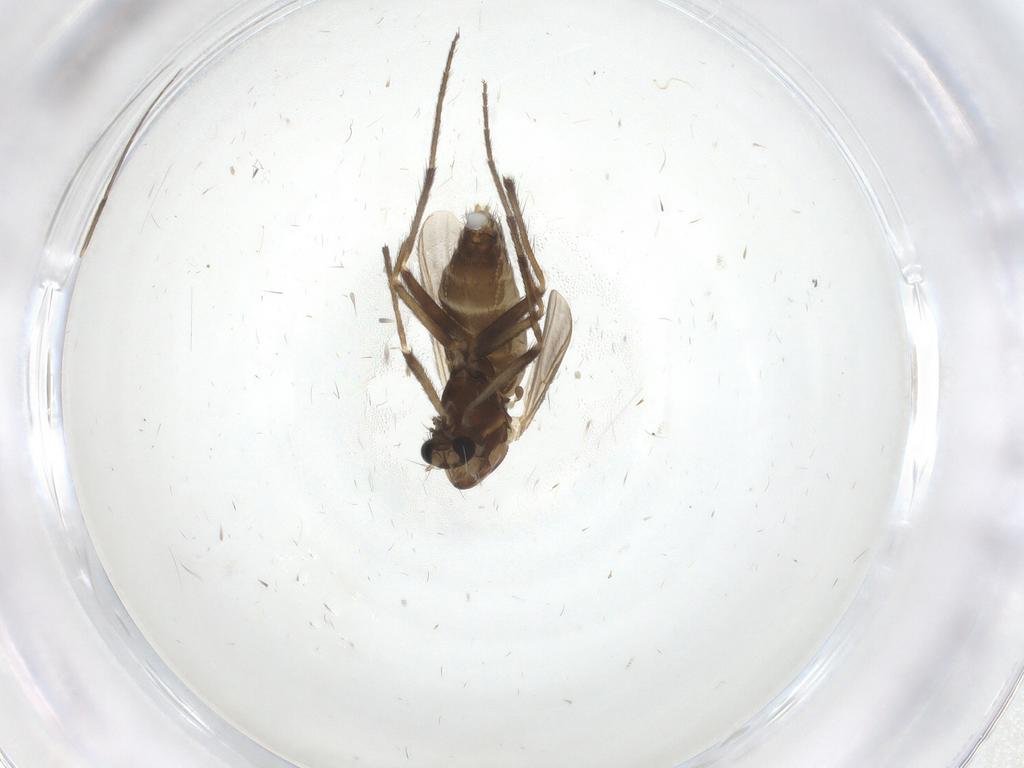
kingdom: Animalia
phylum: Arthropoda
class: Insecta
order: Diptera
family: Chironomidae
